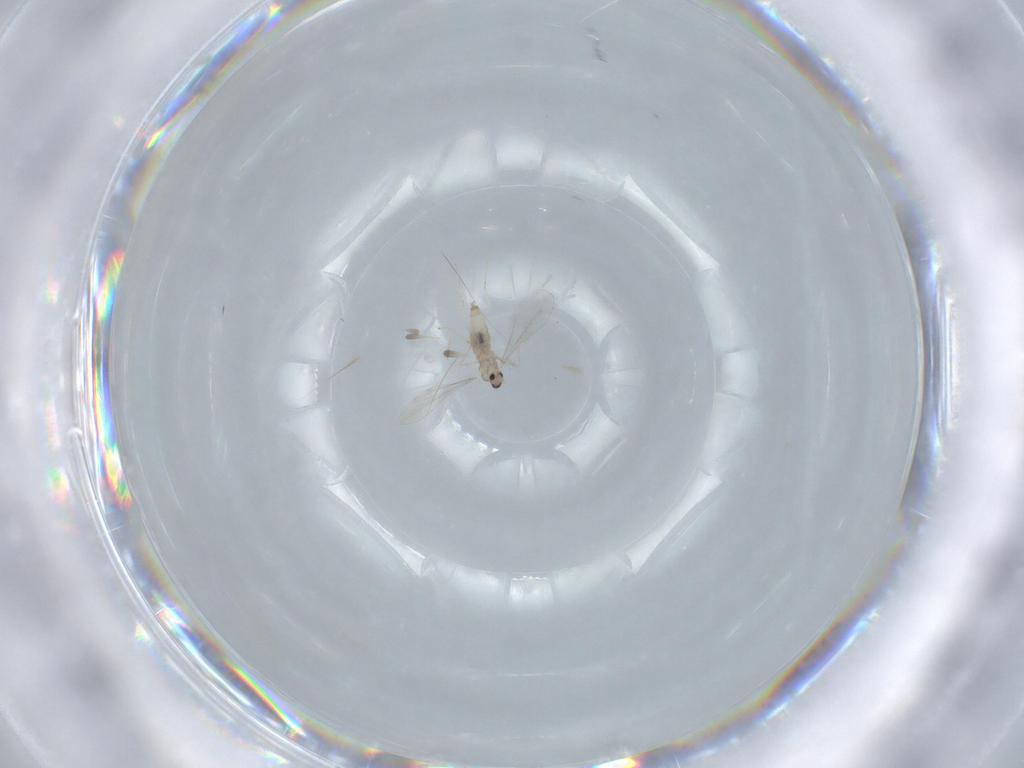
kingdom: Animalia
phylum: Arthropoda
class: Insecta
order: Diptera
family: Cecidomyiidae
